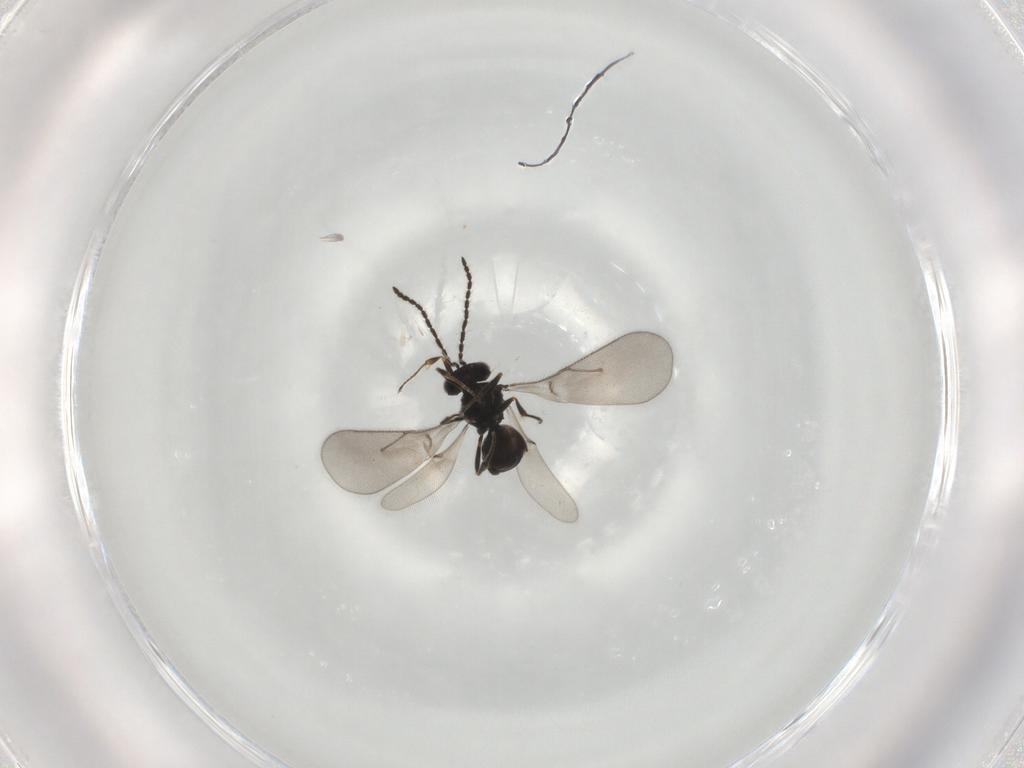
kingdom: Animalia
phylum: Arthropoda
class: Insecta
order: Hymenoptera
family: Scelionidae
